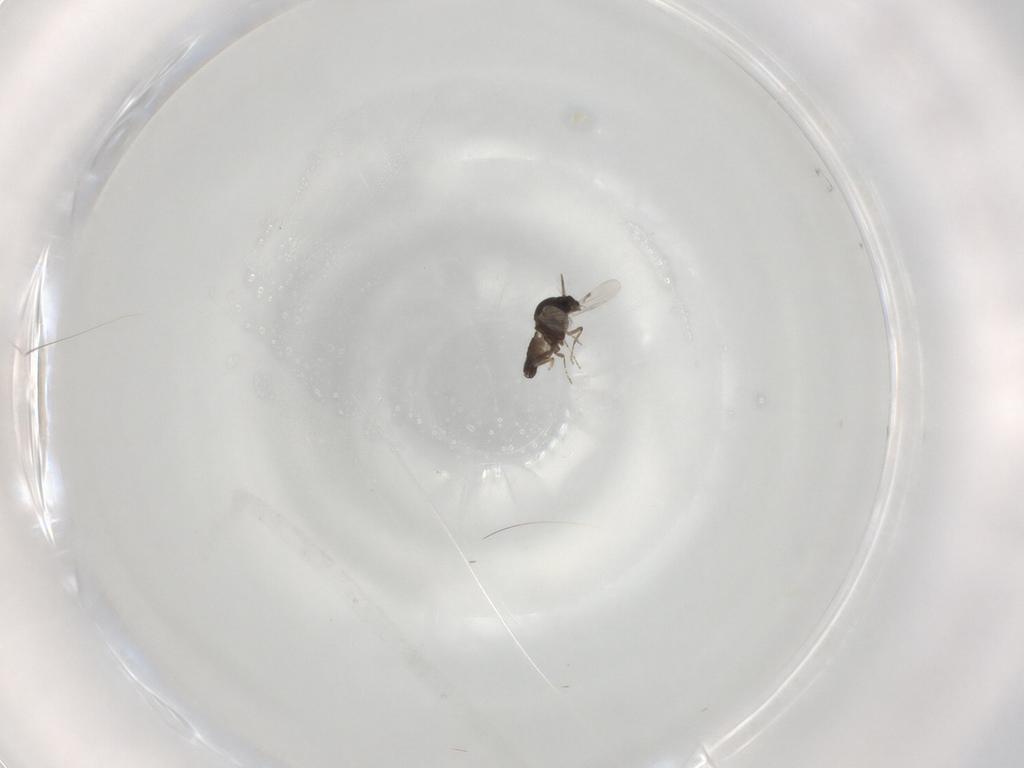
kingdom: Animalia
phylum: Arthropoda
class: Insecta
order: Diptera
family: Ceratopogonidae
